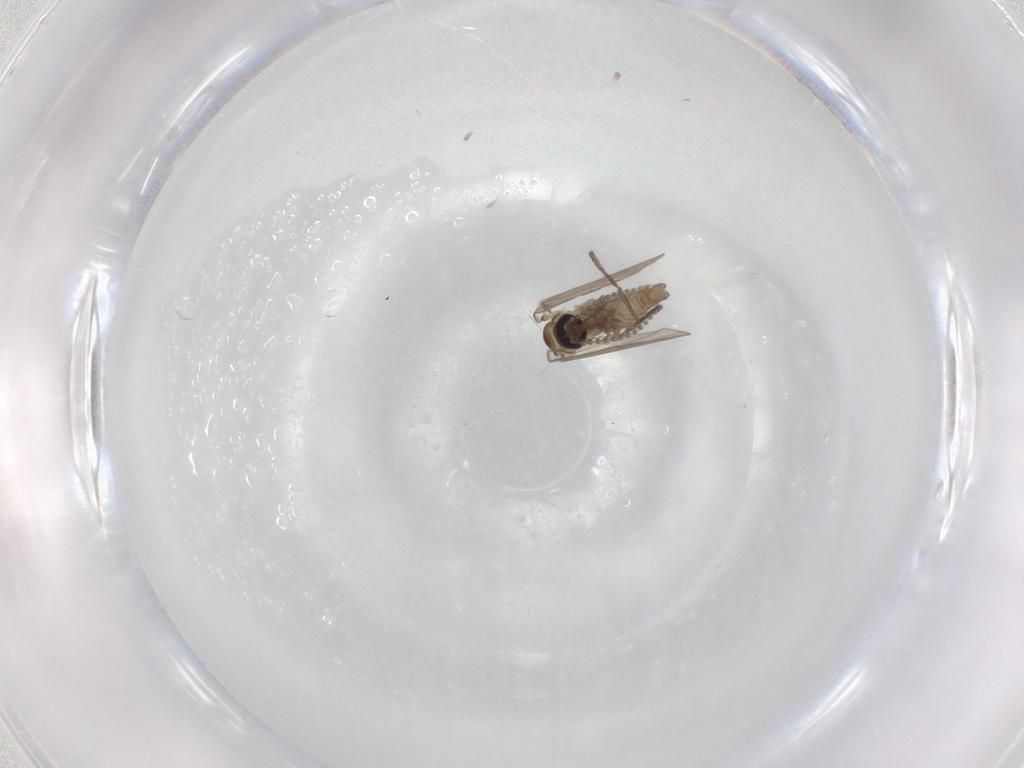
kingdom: Animalia
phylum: Arthropoda
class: Insecta
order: Diptera
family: Psychodidae
